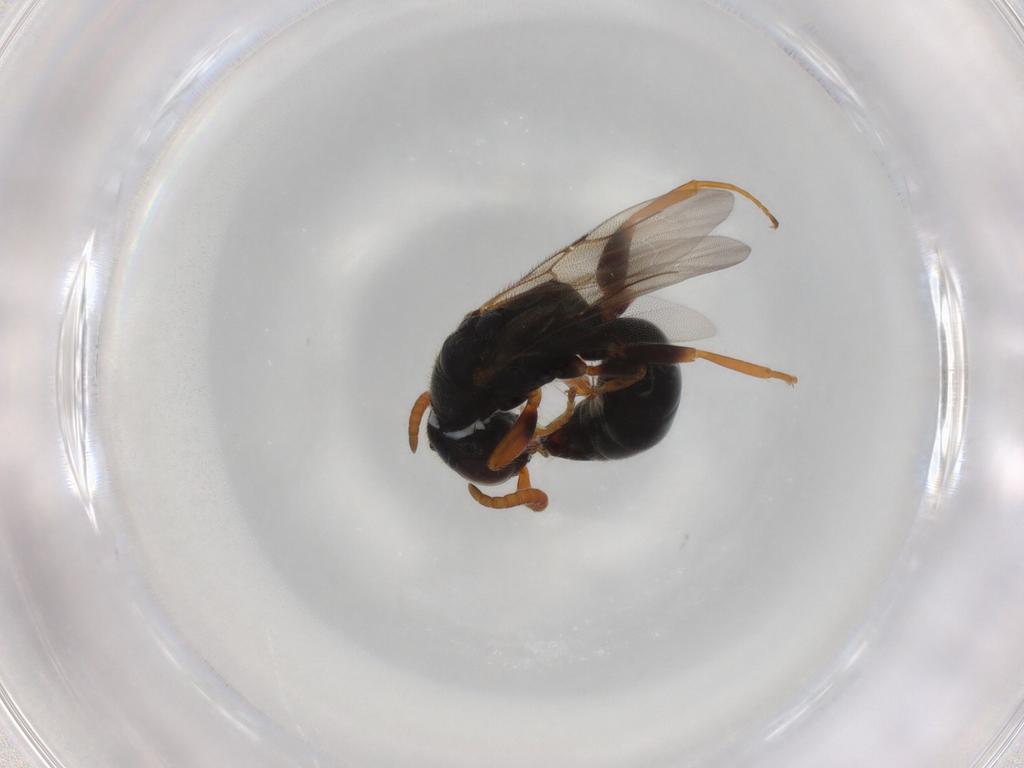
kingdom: Animalia
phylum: Arthropoda
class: Insecta
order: Hymenoptera
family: Bethylidae
